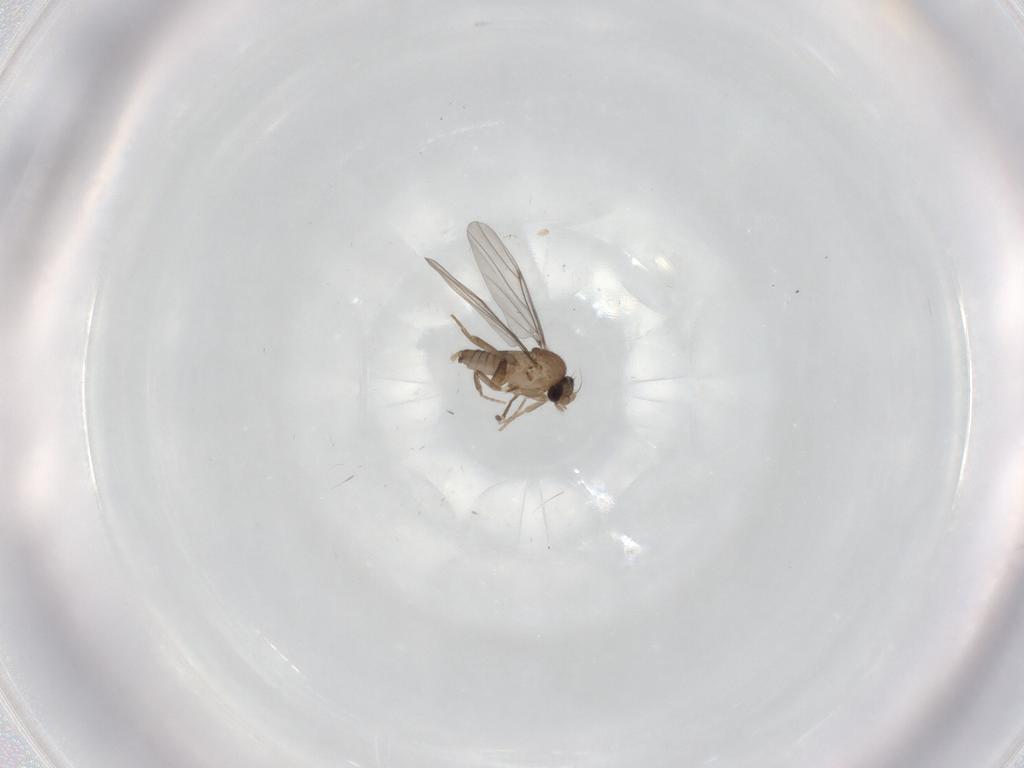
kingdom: Animalia
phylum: Arthropoda
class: Insecta
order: Diptera
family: Cecidomyiidae
